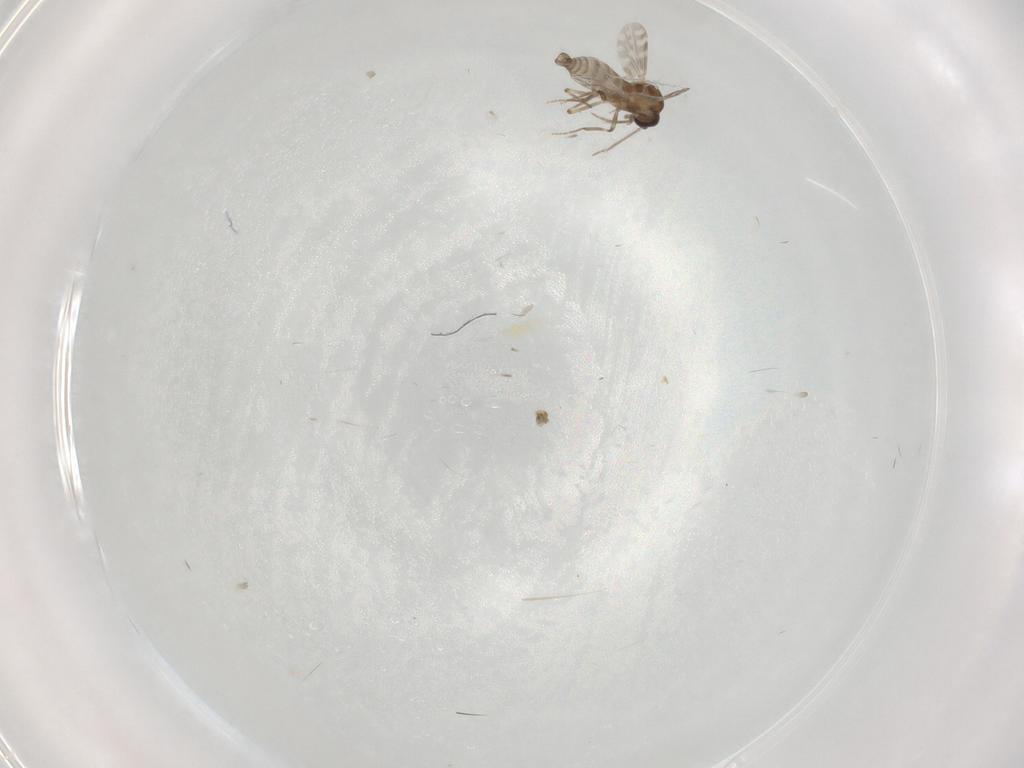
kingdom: Animalia
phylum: Arthropoda
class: Insecta
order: Diptera
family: Ceratopogonidae
